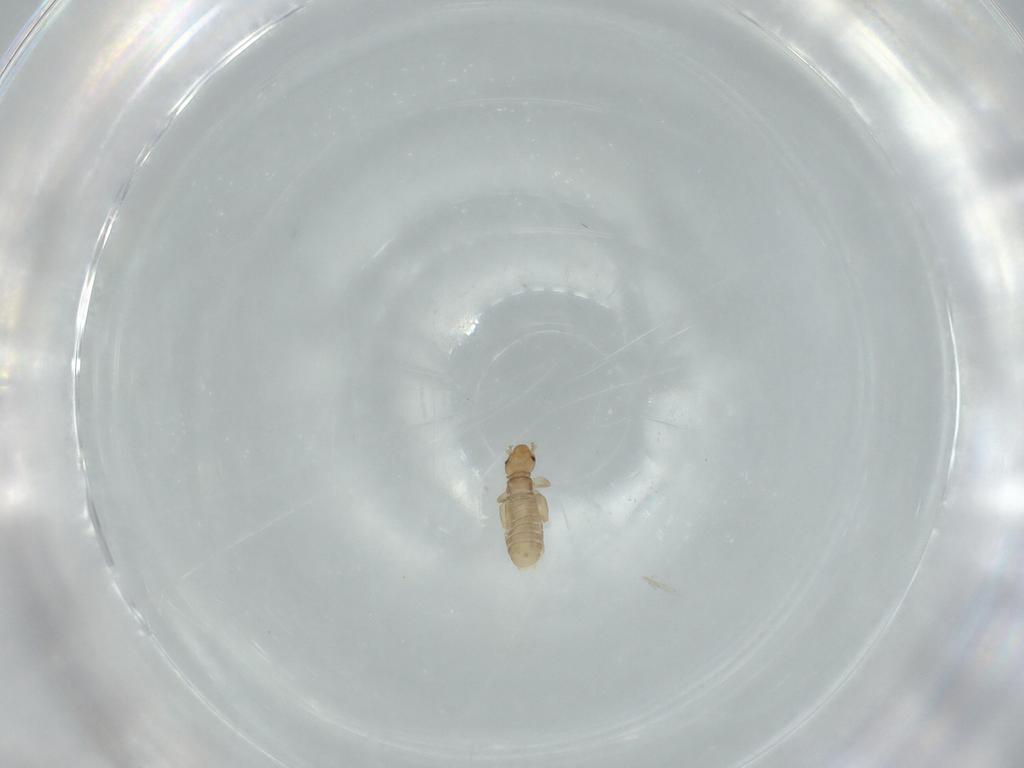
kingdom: Animalia
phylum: Arthropoda
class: Insecta
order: Psocodea
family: Liposcelididae
